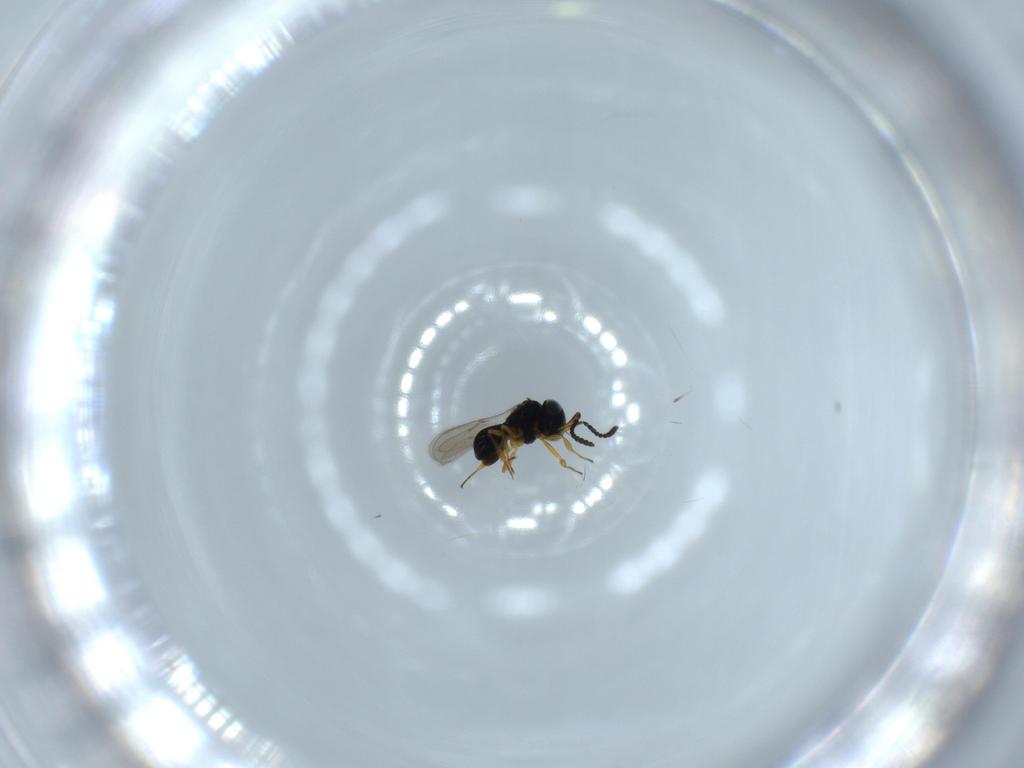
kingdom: Animalia
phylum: Arthropoda
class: Insecta
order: Hymenoptera
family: Scelionidae
